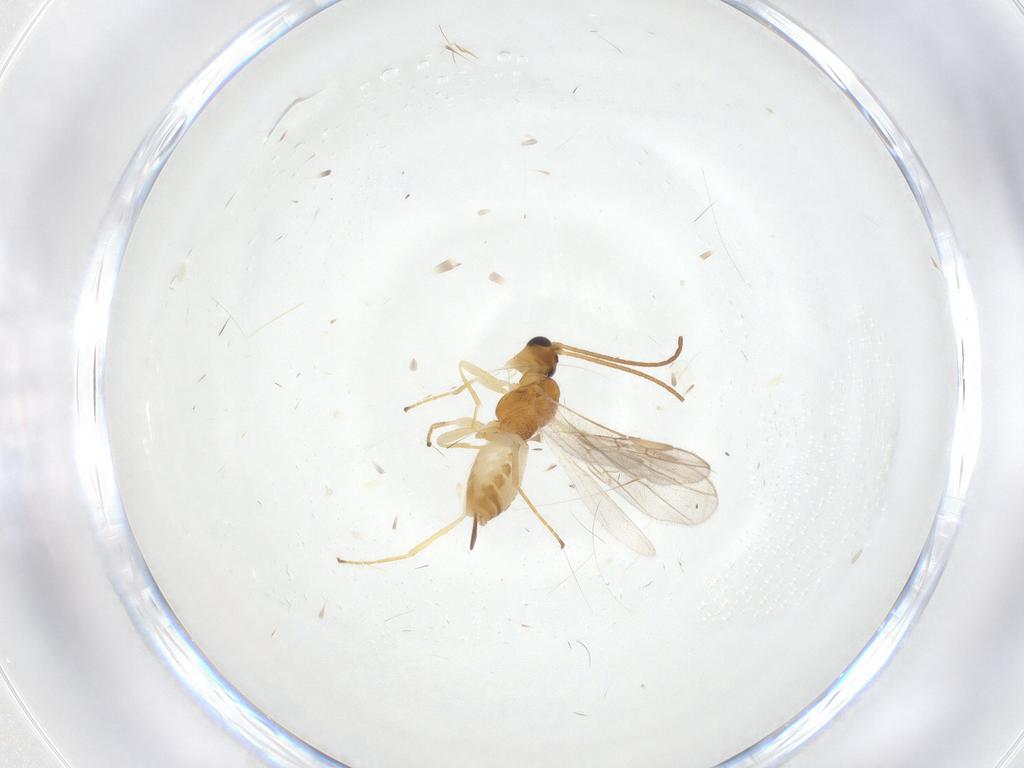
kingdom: Animalia
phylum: Arthropoda
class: Insecta
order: Hymenoptera
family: Braconidae
